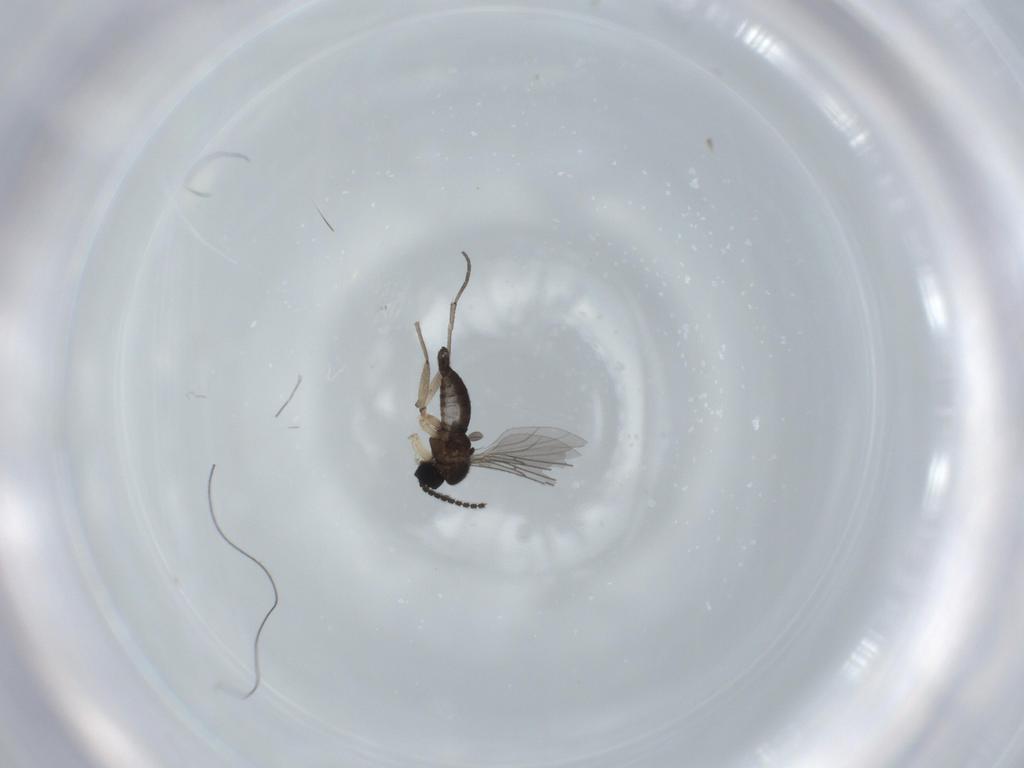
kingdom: Animalia
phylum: Arthropoda
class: Insecta
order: Diptera
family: Sciaridae
